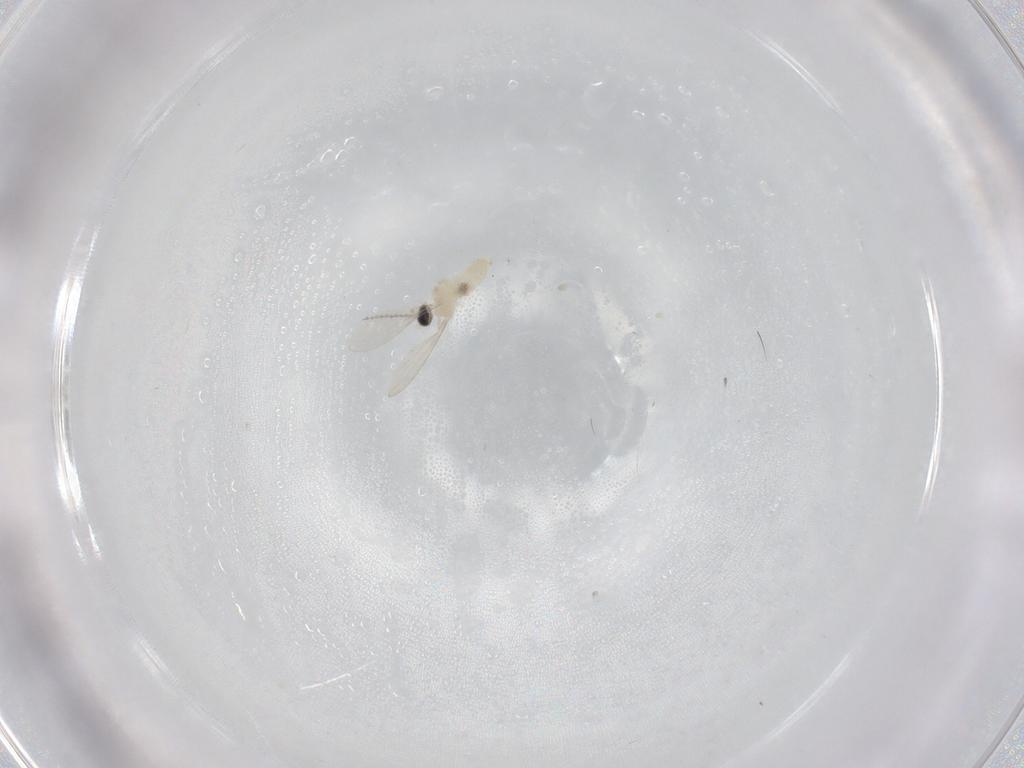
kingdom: Animalia
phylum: Arthropoda
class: Insecta
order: Diptera
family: Cecidomyiidae
